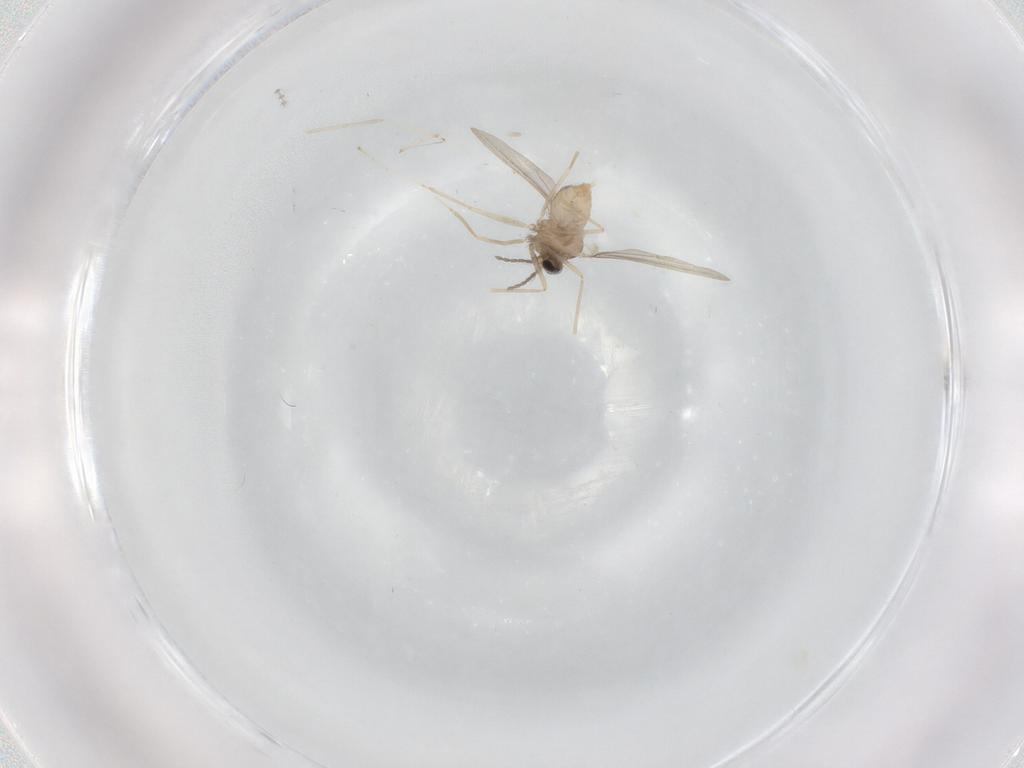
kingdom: Animalia
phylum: Arthropoda
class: Insecta
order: Diptera
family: Cecidomyiidae
